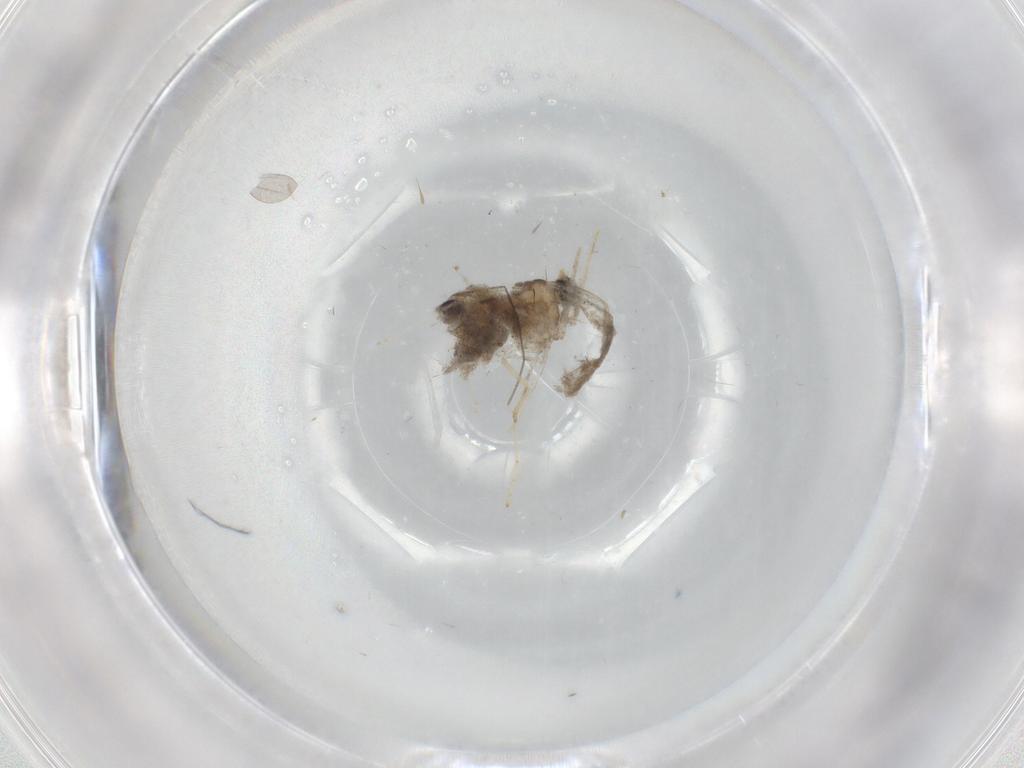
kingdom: Animalia
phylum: Arthropoda
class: Insecta
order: Diptera
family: Cecidomyiidae
